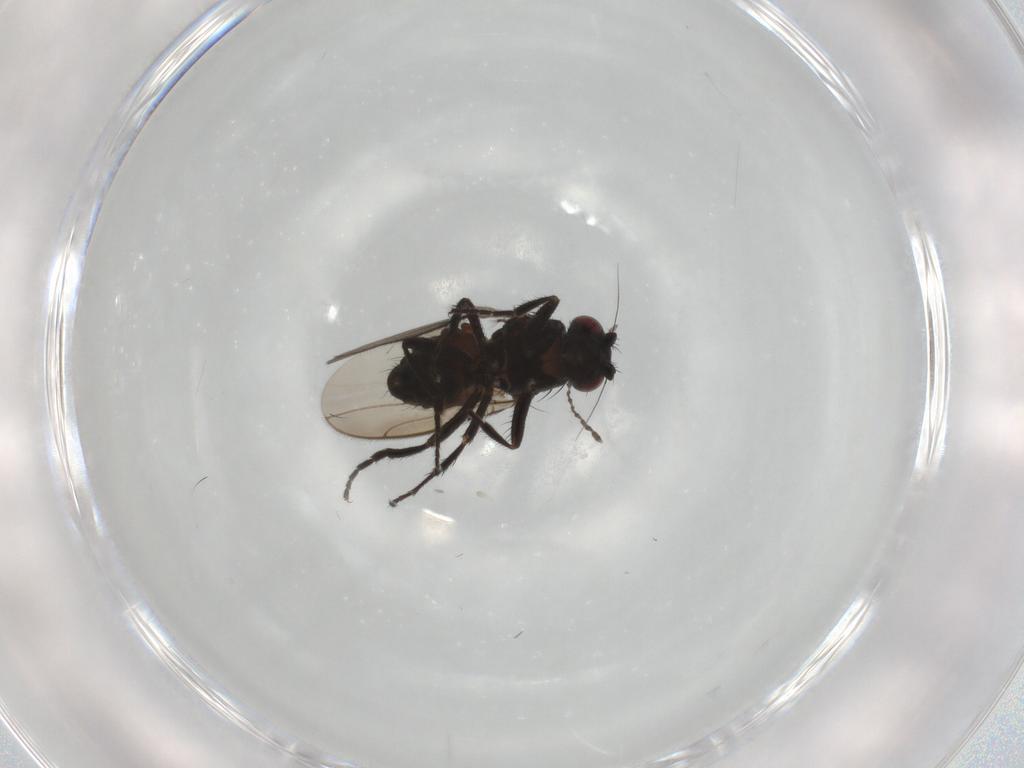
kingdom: Animalia
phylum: Arthropoda
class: Insecta
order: Diptera
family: Sphaeroceridae
